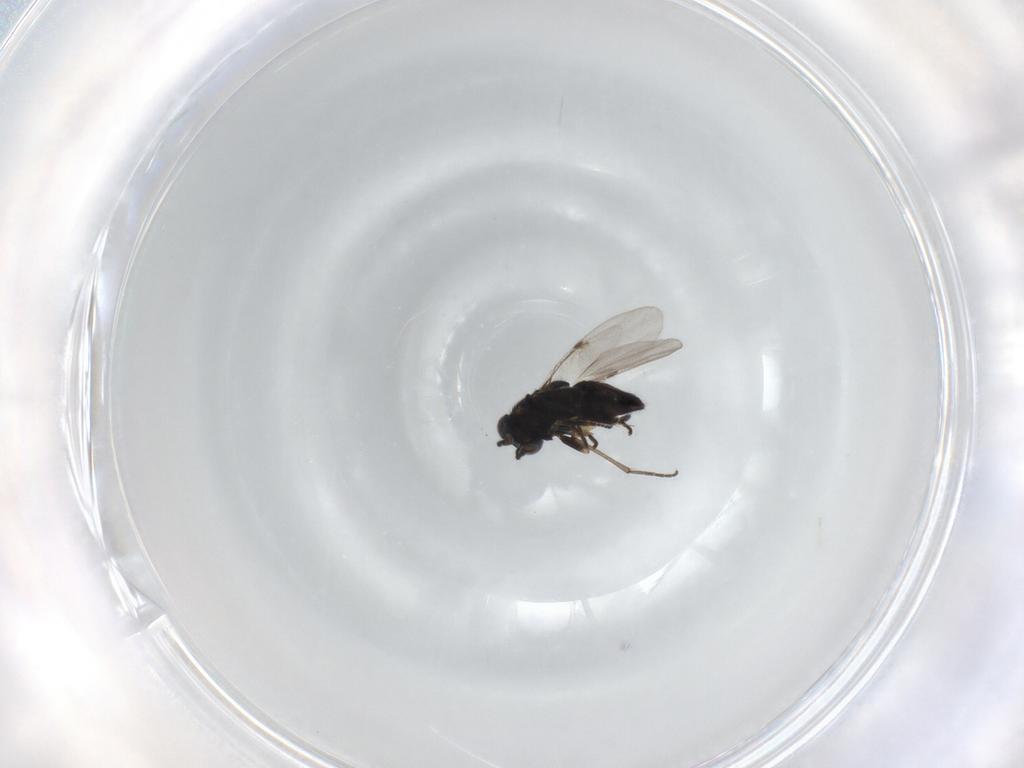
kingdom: Animalia
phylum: Arthropoda
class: Insecta
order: Hymenoptera
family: Encyrtidae
